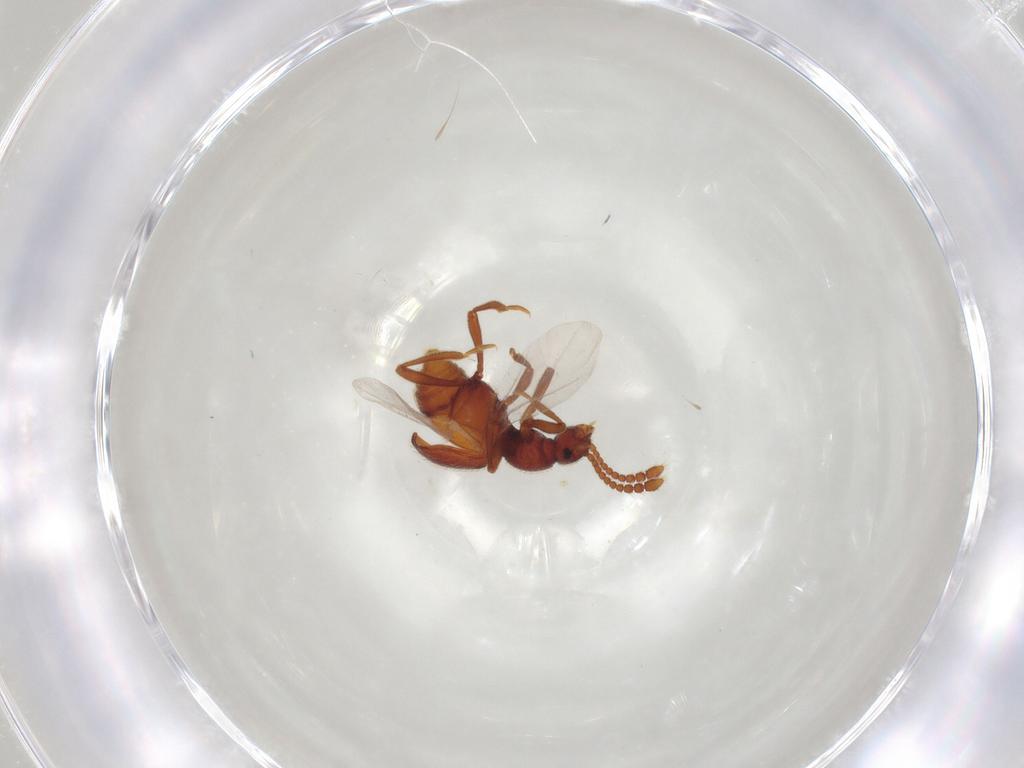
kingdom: Animalia
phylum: Arthropoda
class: Insecta
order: Coleoptera
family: Staphylinidae
